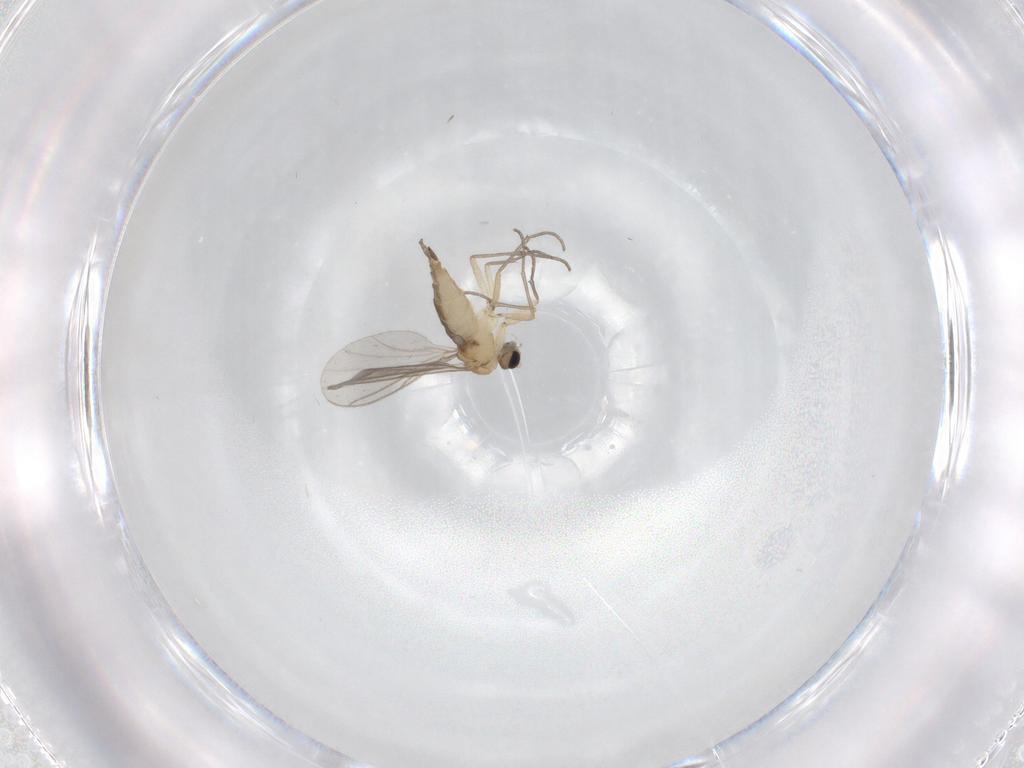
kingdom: Animalia
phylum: Arthropoda
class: Insecta
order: Diptera
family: Sciaridae
